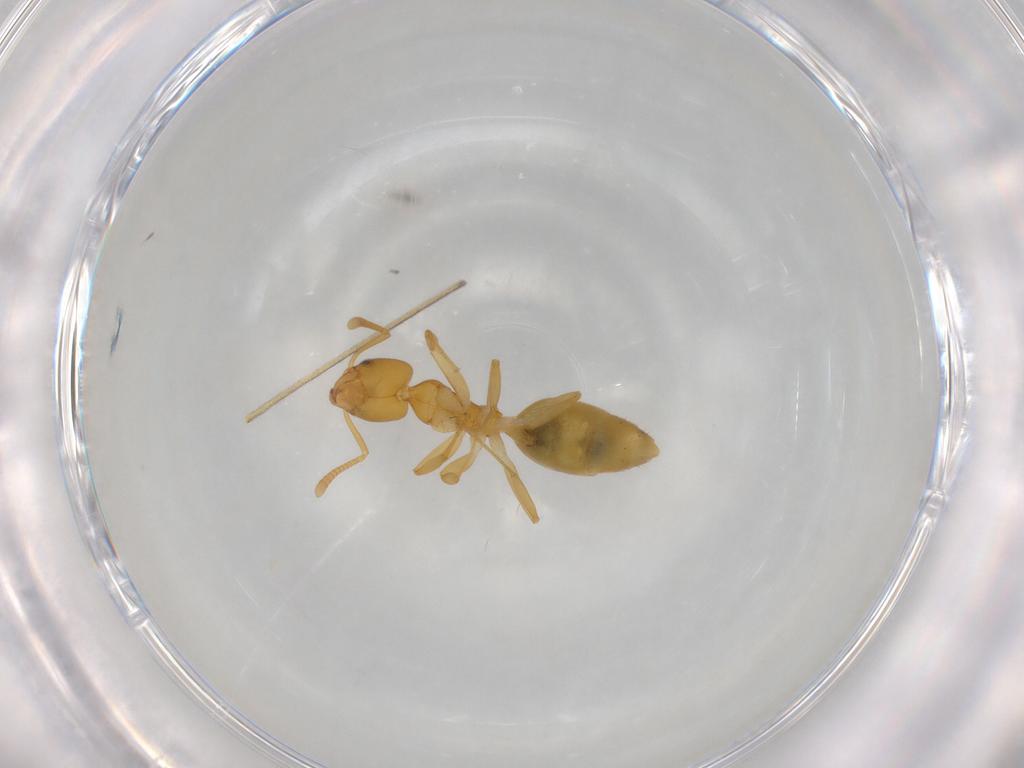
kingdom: Animalia
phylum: Arthropoda
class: Insecta
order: Hymenoptera
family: Formicidae
